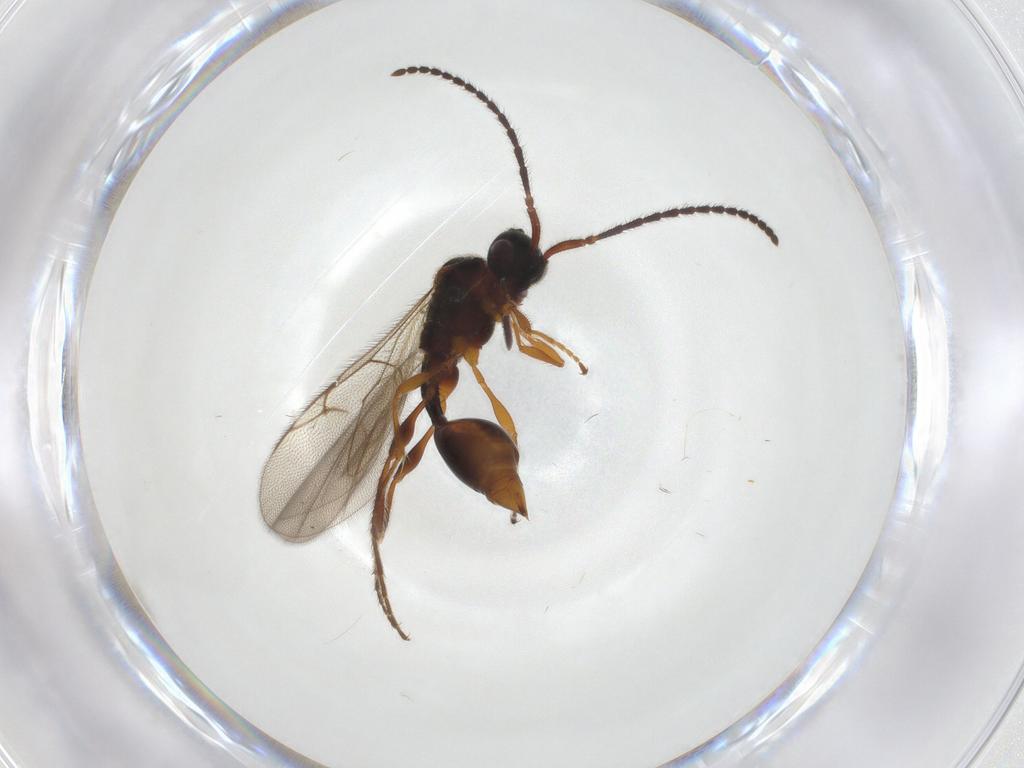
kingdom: Animalia
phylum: Arthropoda
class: Insecta
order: Hymenoptera
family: Diapriidae
